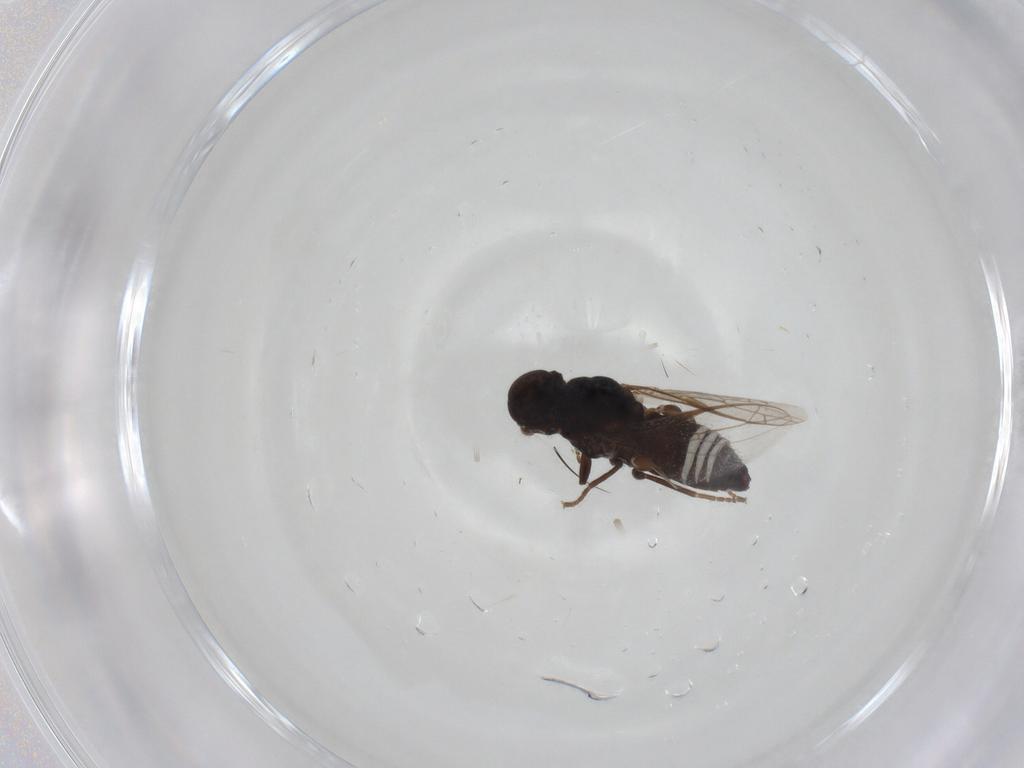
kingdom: Animalia
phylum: Arthropoda
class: Insecta
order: Diptera
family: Scenopinidae
